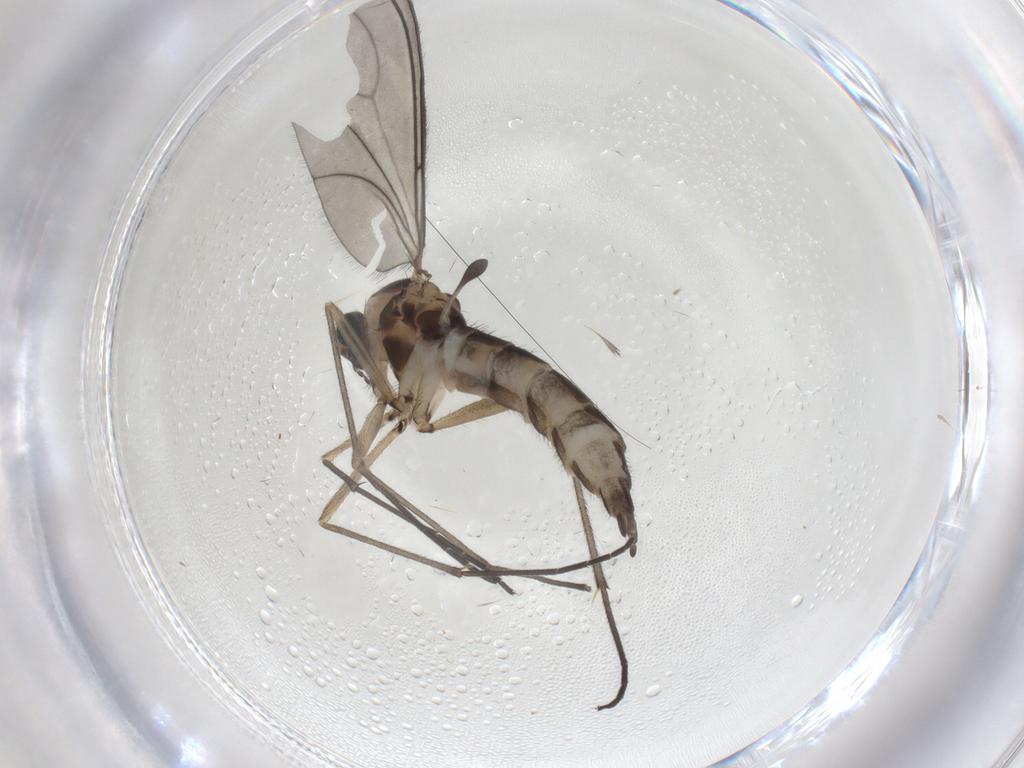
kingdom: Animalia
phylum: Arthropoda
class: Insecta
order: Diptera
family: Sciaridae
